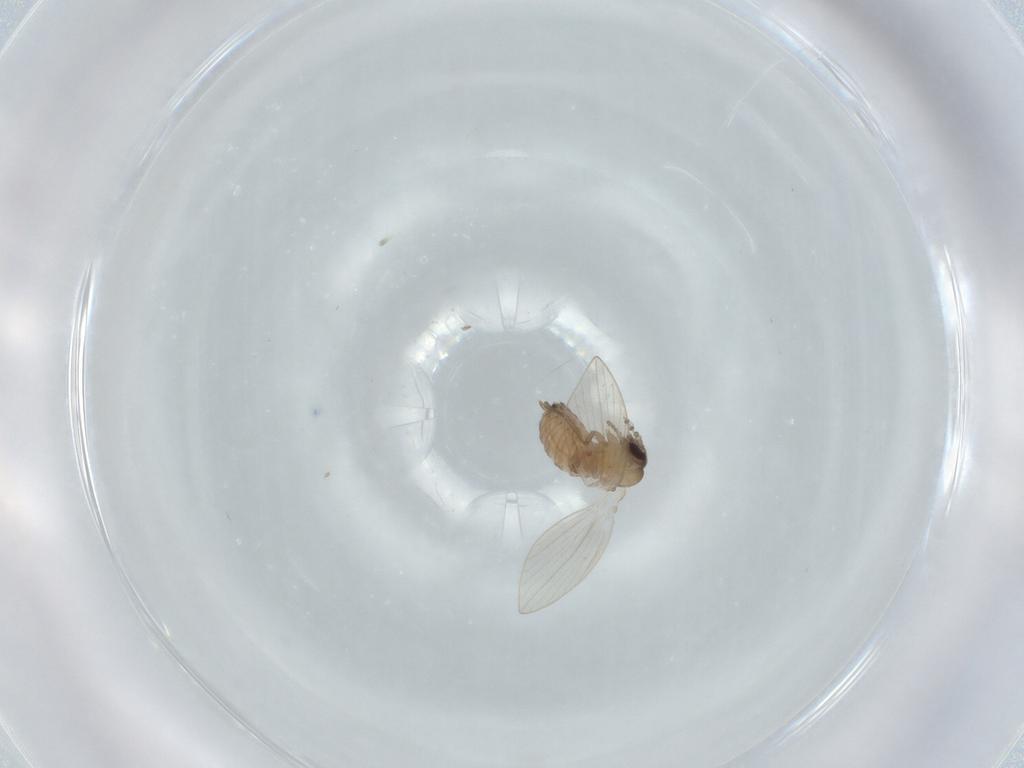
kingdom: Animalia
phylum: Arthropoda
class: Insecta
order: Diptera
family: Psychodidae
